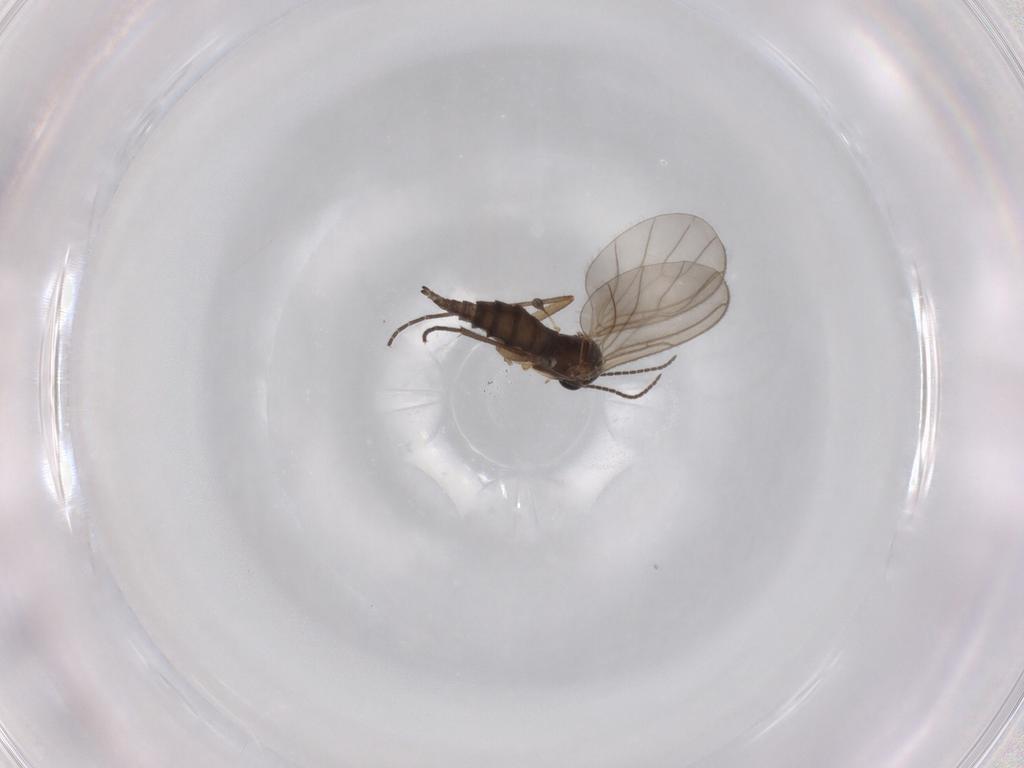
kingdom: Animalia
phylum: Arthropoda
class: Insecta
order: Diptera
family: Sciaridae
